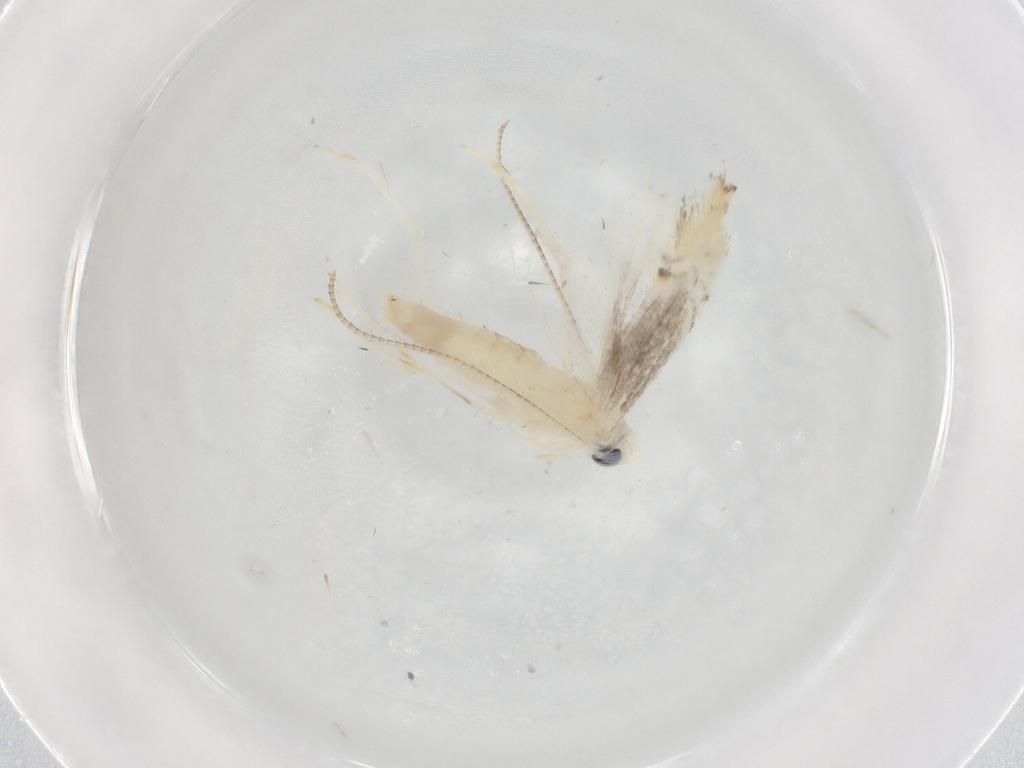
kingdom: Animalia
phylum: Arthropoda
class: Insecta
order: Lepidoptera
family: Gracillariidae
